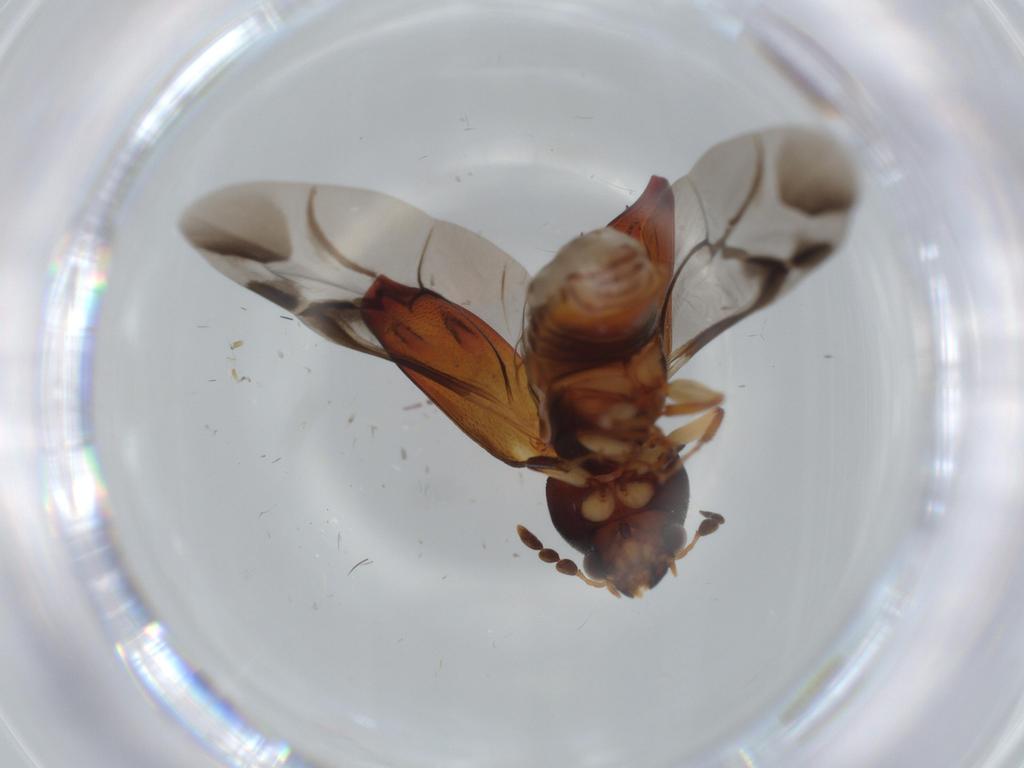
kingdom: Animalia
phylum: Arthropoda
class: Insecta
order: Coleoptera
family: Bostrichidae
